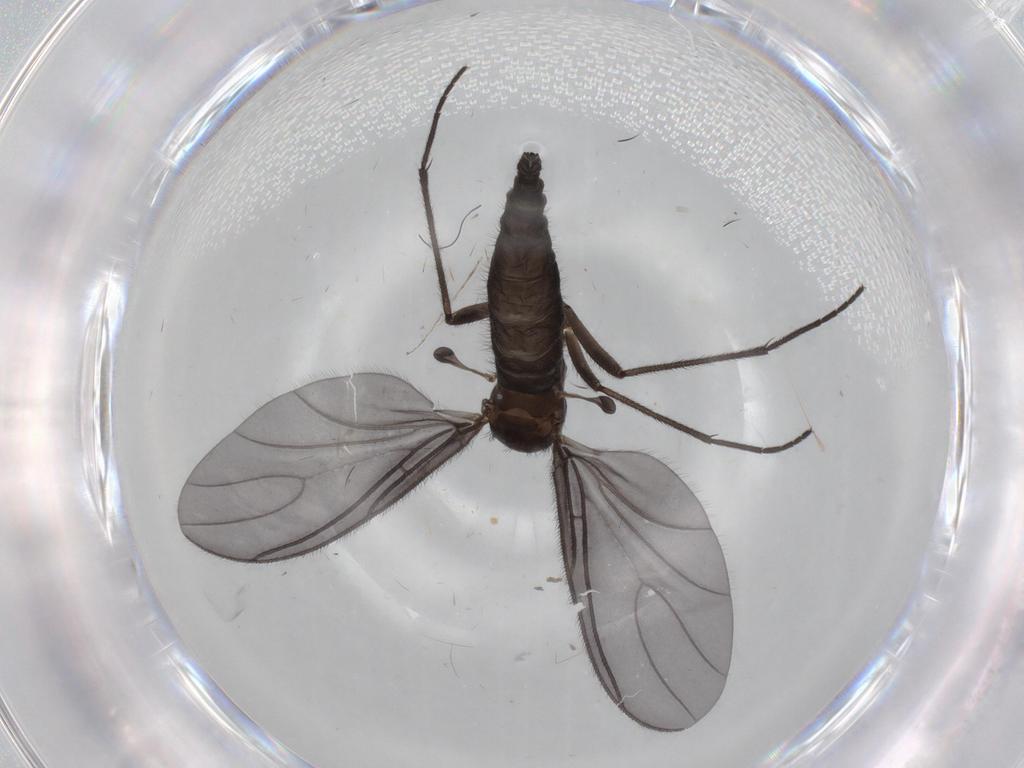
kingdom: Animalia
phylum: Arthropoda
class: Insecta
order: Diptera
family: Sciaridae
